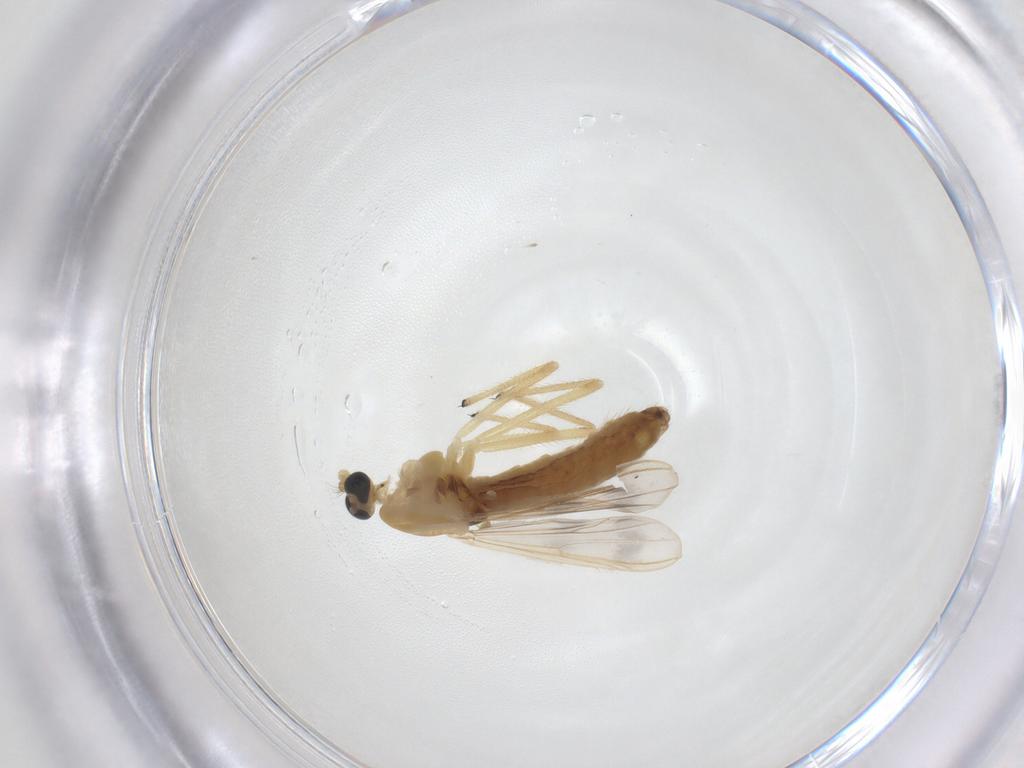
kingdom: Animalia
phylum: Arthropoda
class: Insecta
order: Diptera
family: Chironomidae
